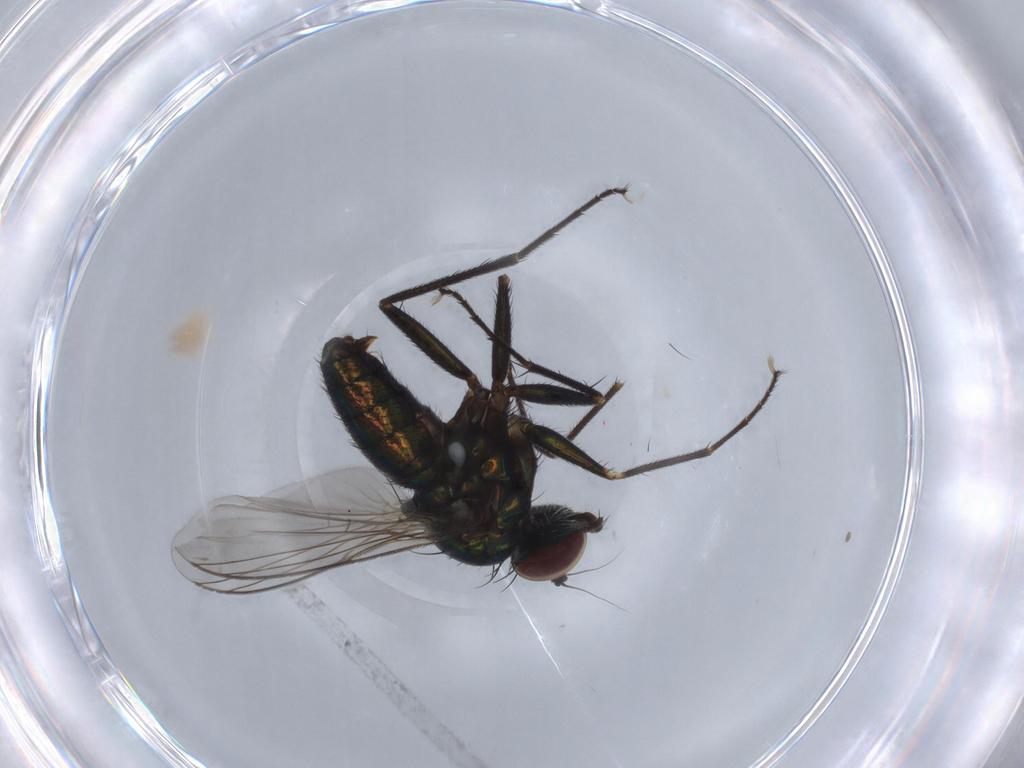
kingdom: Animalia
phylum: Arthropoda
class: Insecta
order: Diptera
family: Dolichopodidae
